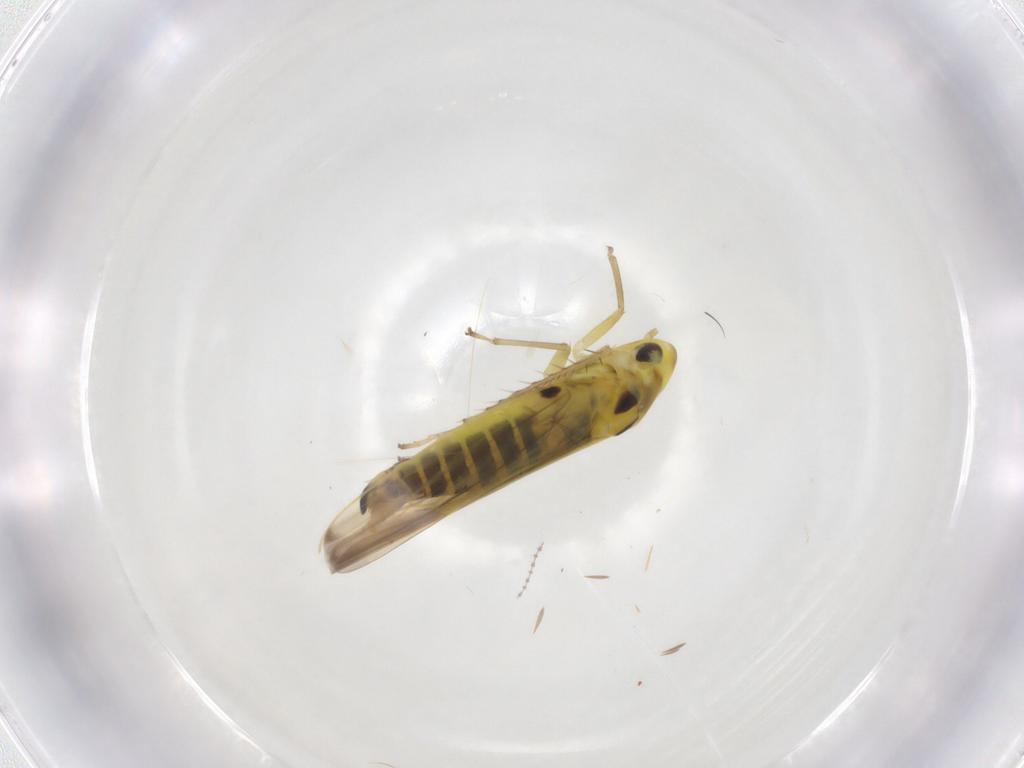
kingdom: Animalia
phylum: Arthropoda
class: Insecta
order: Hemiptera
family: Cicadellidae
